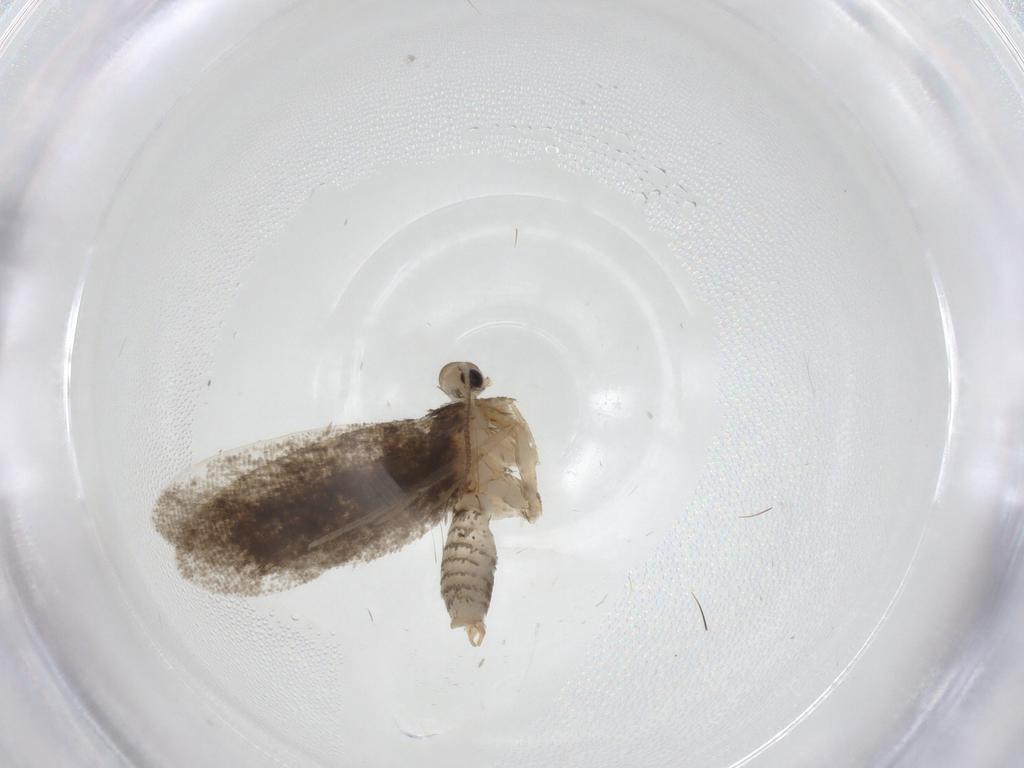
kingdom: Animalia
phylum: Arthropoda
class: Insecta
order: Lepidoptera
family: Psychidae
